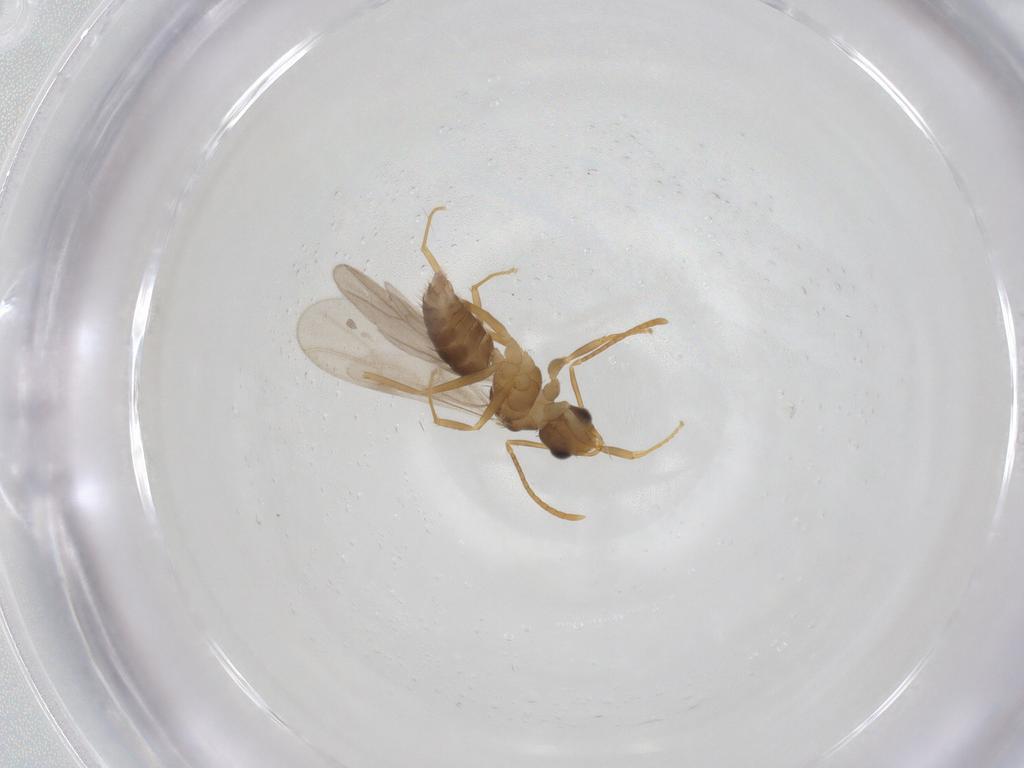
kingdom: Animalia
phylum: Arthropoda
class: Insecta
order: Hymenoptera
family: Formicidae
